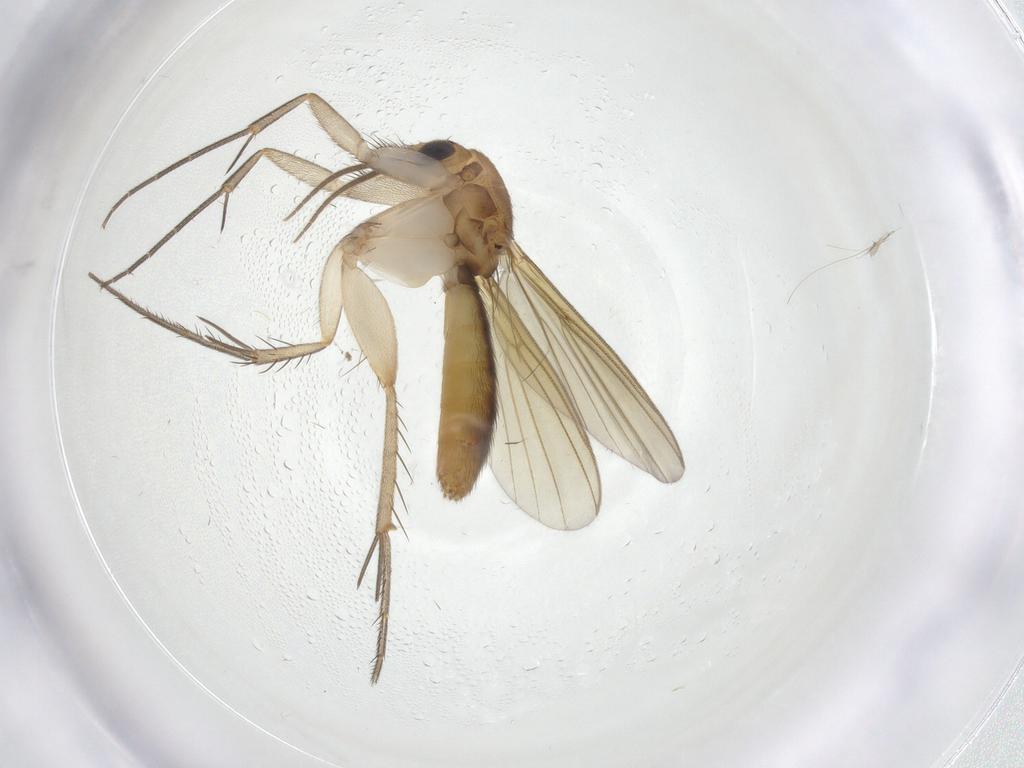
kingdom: Animalia
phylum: Arthropoda
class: Insecta
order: Diptera
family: Mycetophilidae
